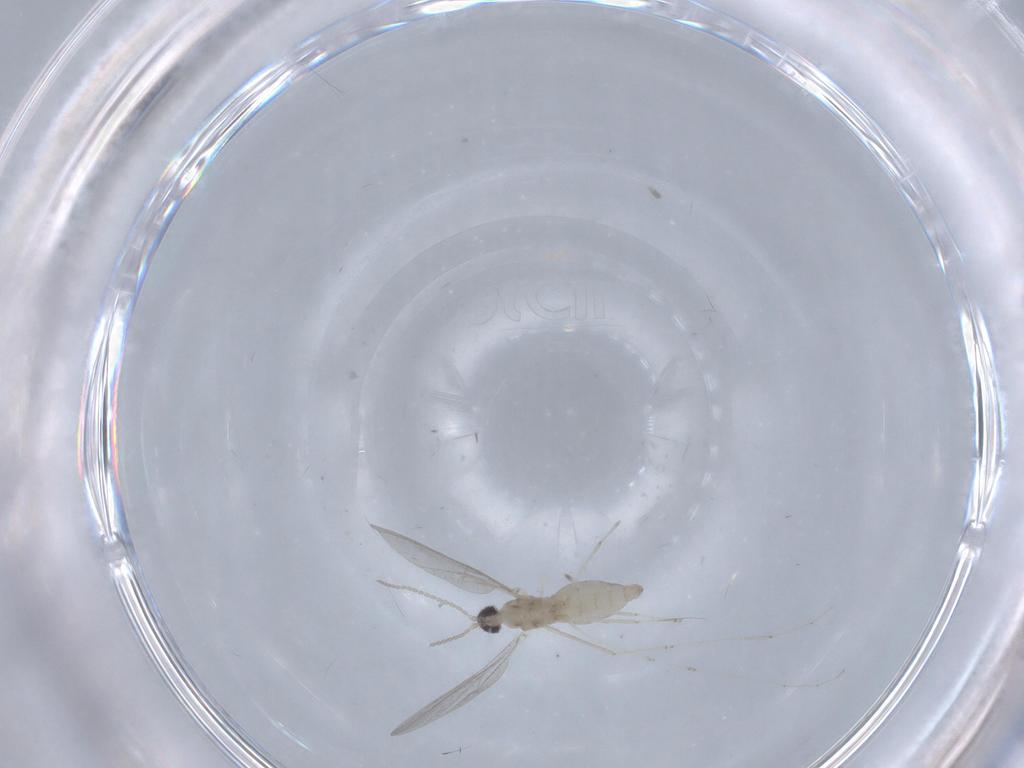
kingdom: Animalia
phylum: Arthropoda
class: Insecta
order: Diptera
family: Cecidomyiidae
